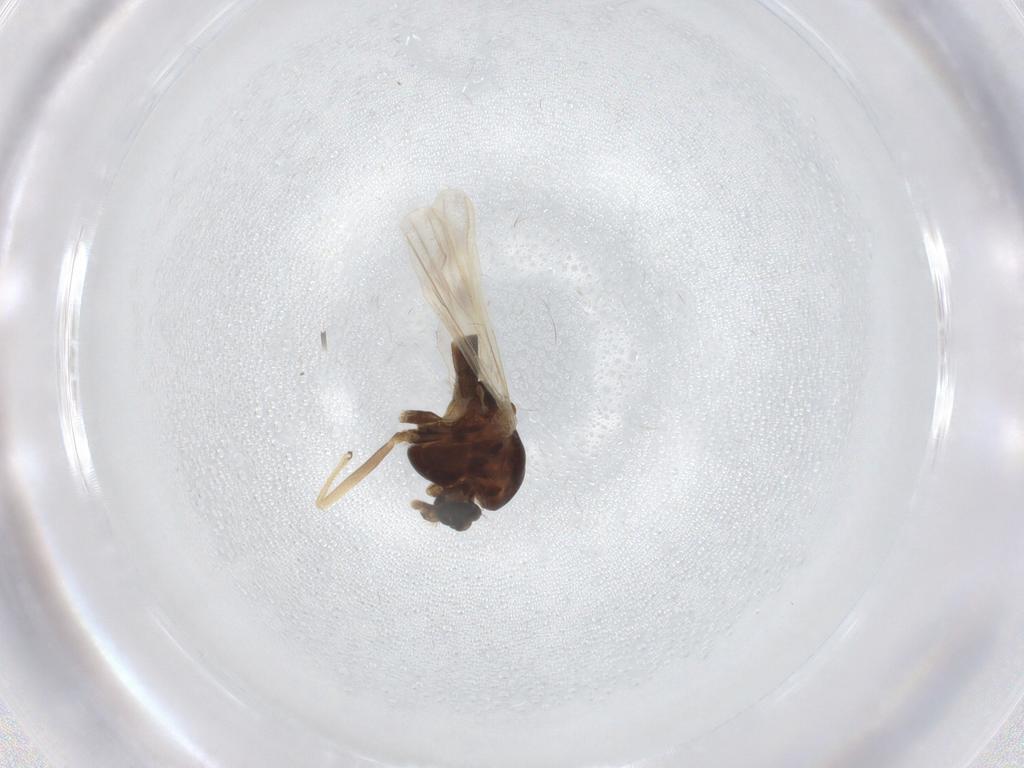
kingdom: Animalia
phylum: Arthropoda
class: Insecta
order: Diptera
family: Chironomidae
